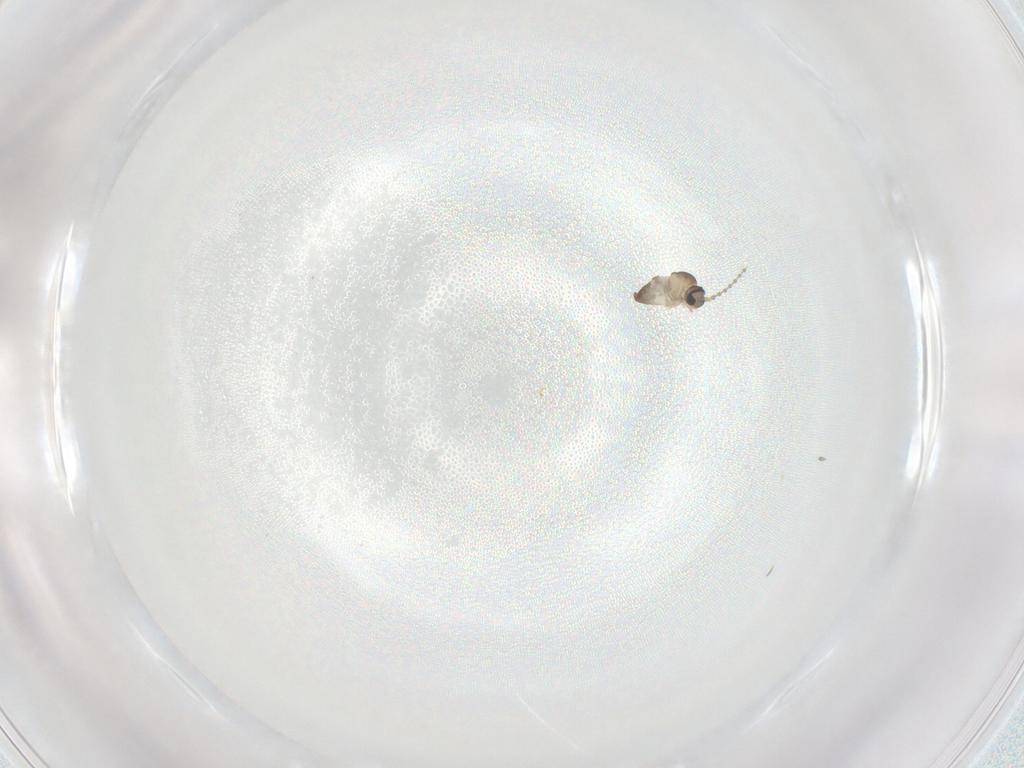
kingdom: Animalia
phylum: Arthropoda
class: Insecta
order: Diptera
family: Cecidomyiidae
